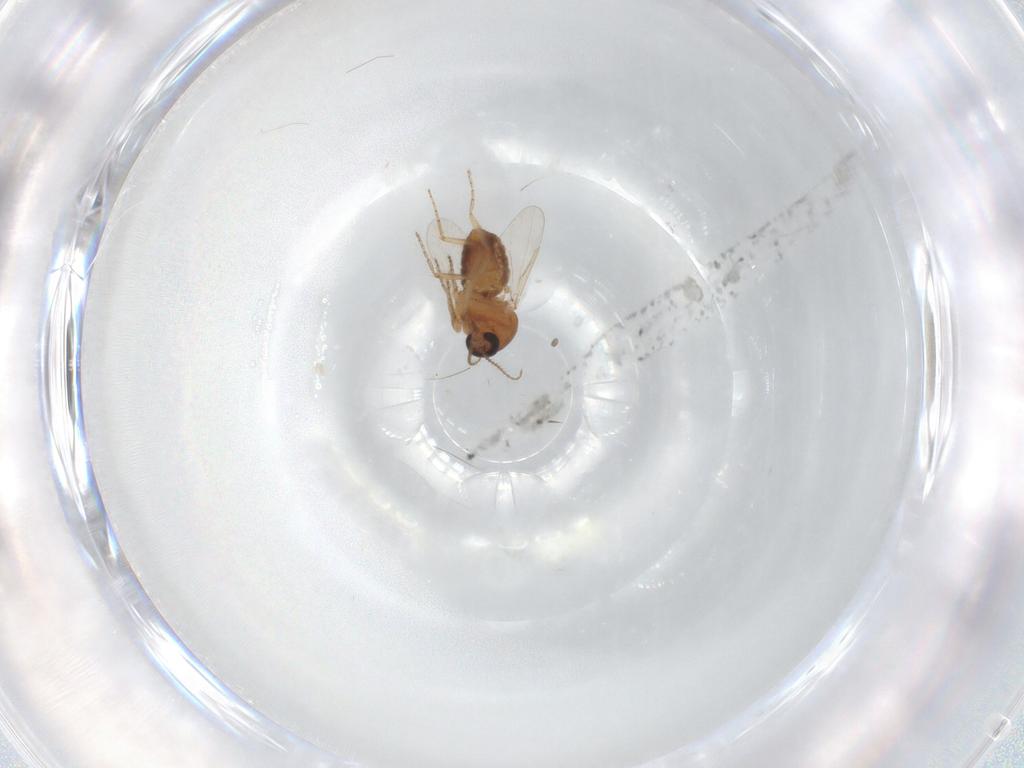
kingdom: Animalia
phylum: Arthropoda
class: Insecta
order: Diptera
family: Ceratopogonidae
